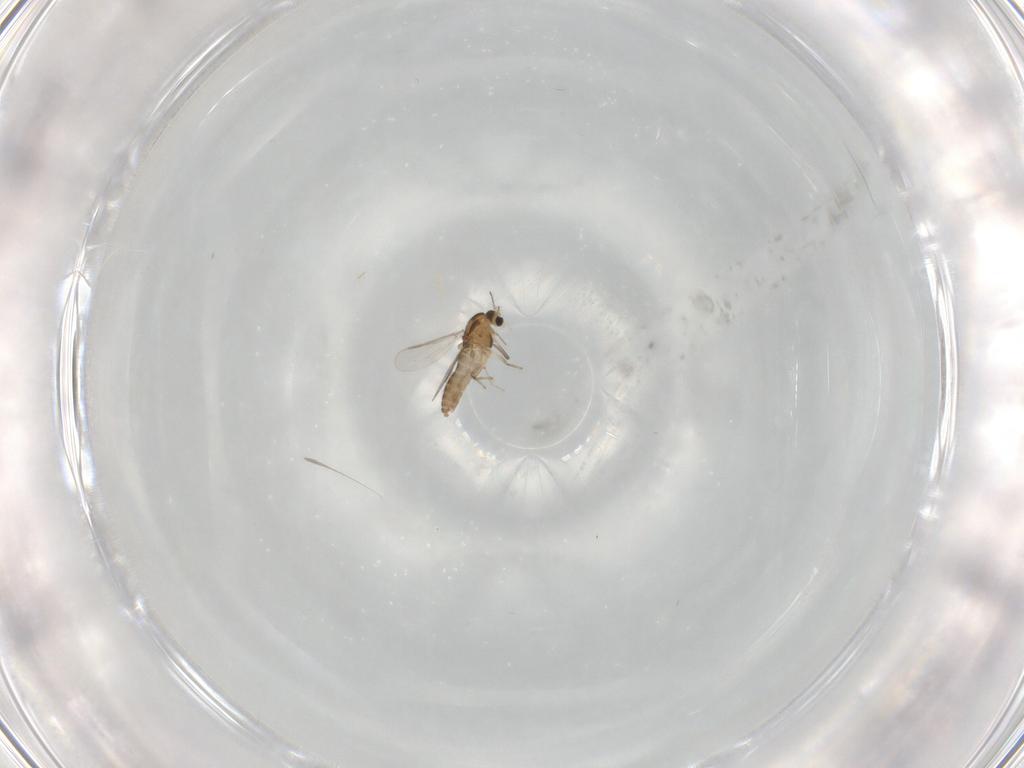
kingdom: Animalia
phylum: Arthropoda
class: Insecta
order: Diptera
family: Chironomidae
